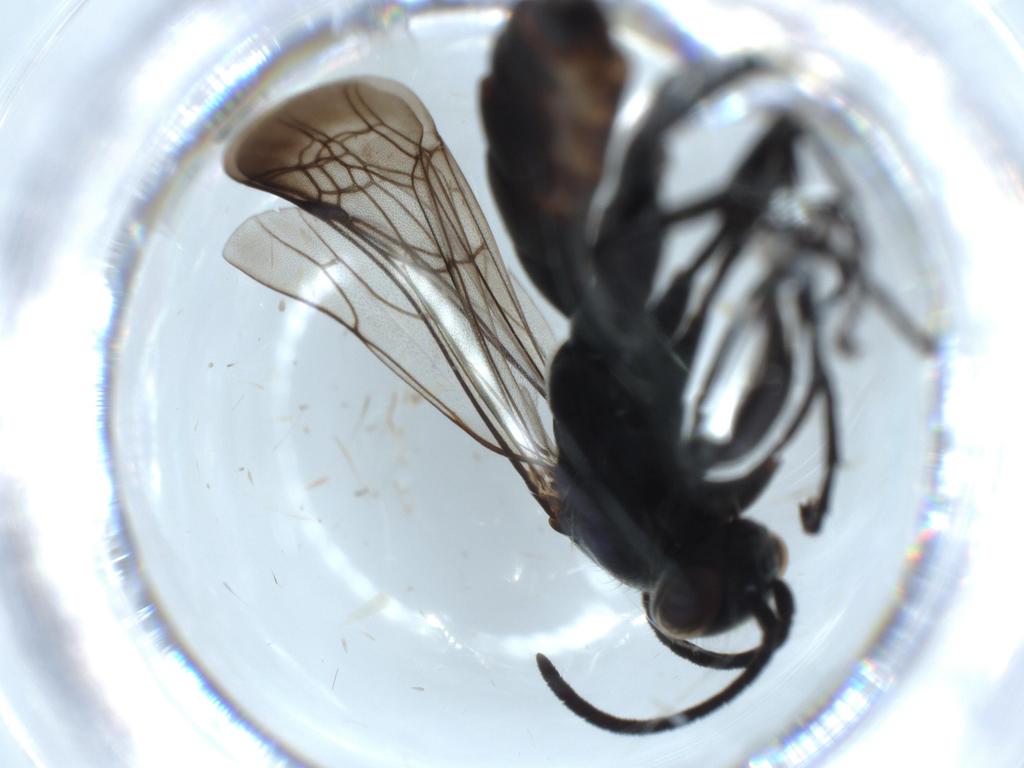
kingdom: Animalia
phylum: Arthropoda
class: Insecta
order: Hymenoptera
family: Pompilidae
